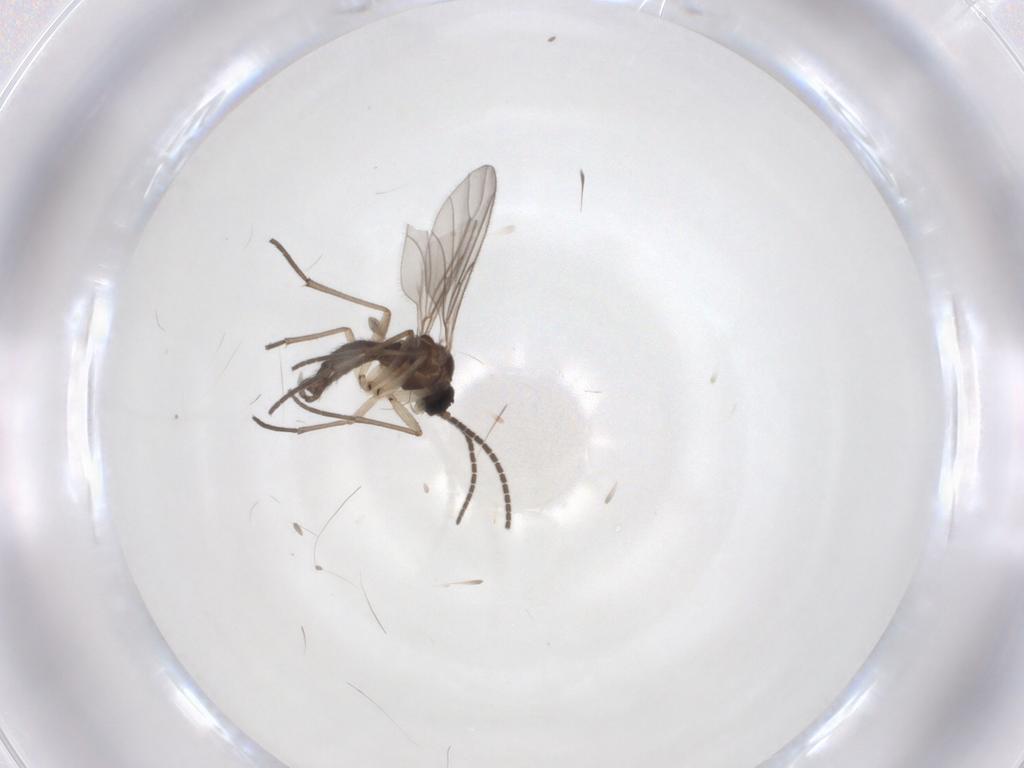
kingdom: Animalia
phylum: Arthropoda
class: Insecta
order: Diptera
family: Sciaridae
